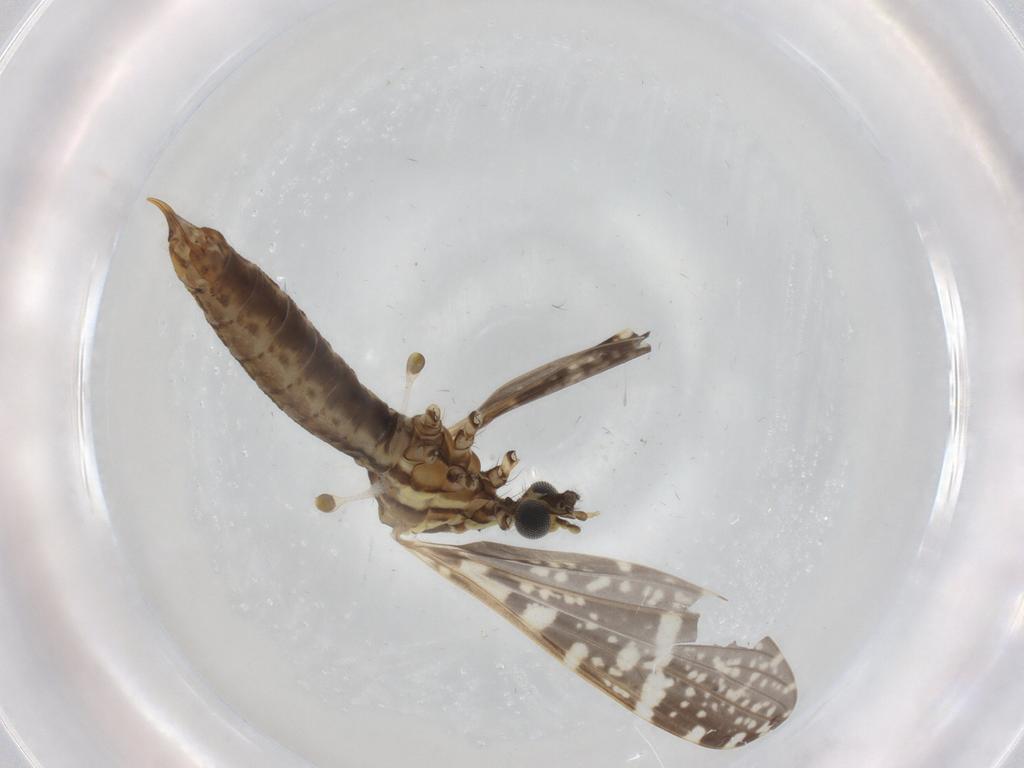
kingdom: Animalia
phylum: Arthropoda
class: Insecta
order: Diptera
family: Limoniidae
